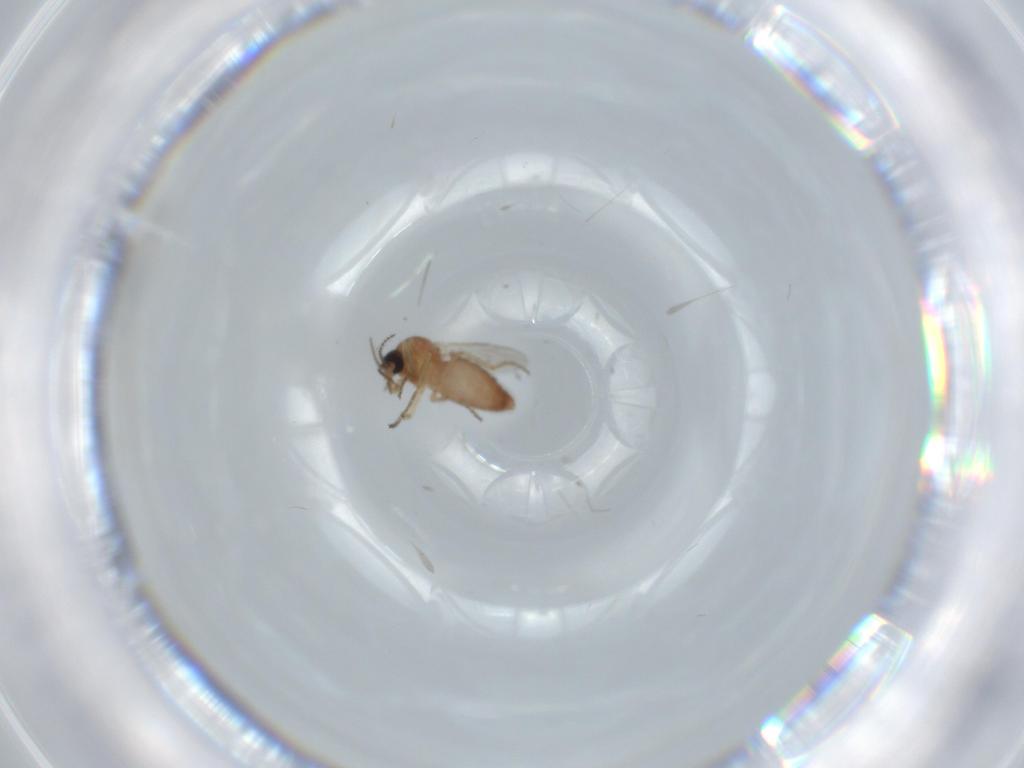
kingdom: Animalia
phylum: Arthropoda
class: Insecta
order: Diptera
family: Ceratopogonidae
